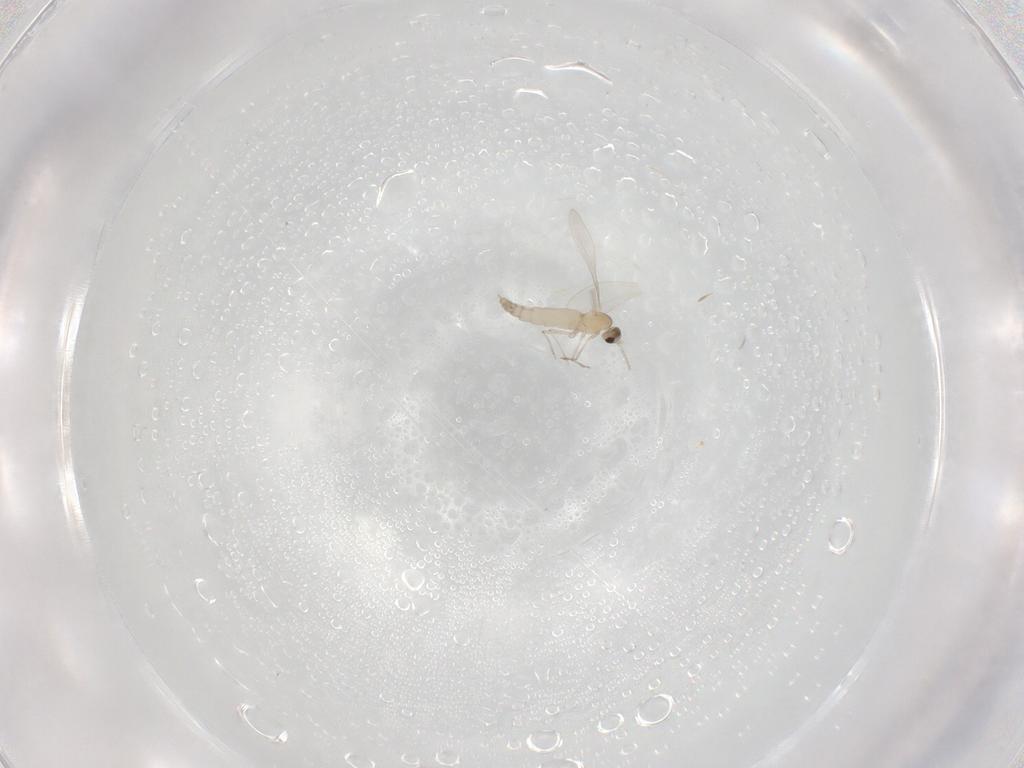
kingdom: Animalia
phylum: Arthropoda
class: Insecta
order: Diptera
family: Cecidomyiidae
